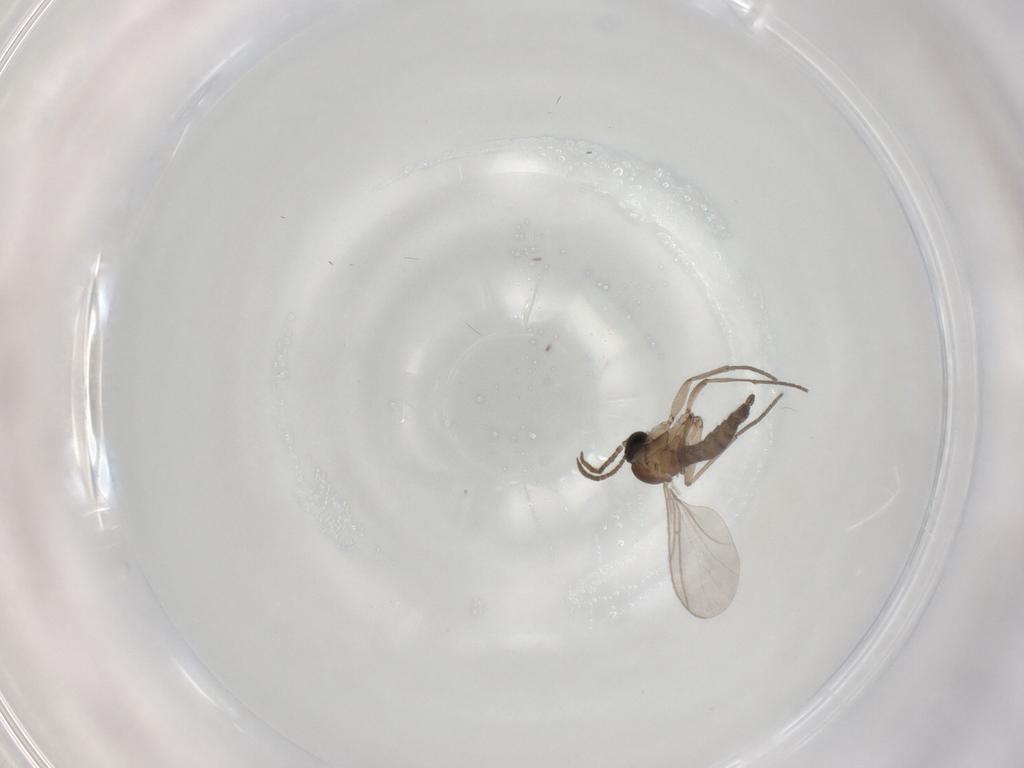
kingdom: Animalia
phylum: Arthropoda
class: Insecta
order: Diptera
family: Sciaridae
